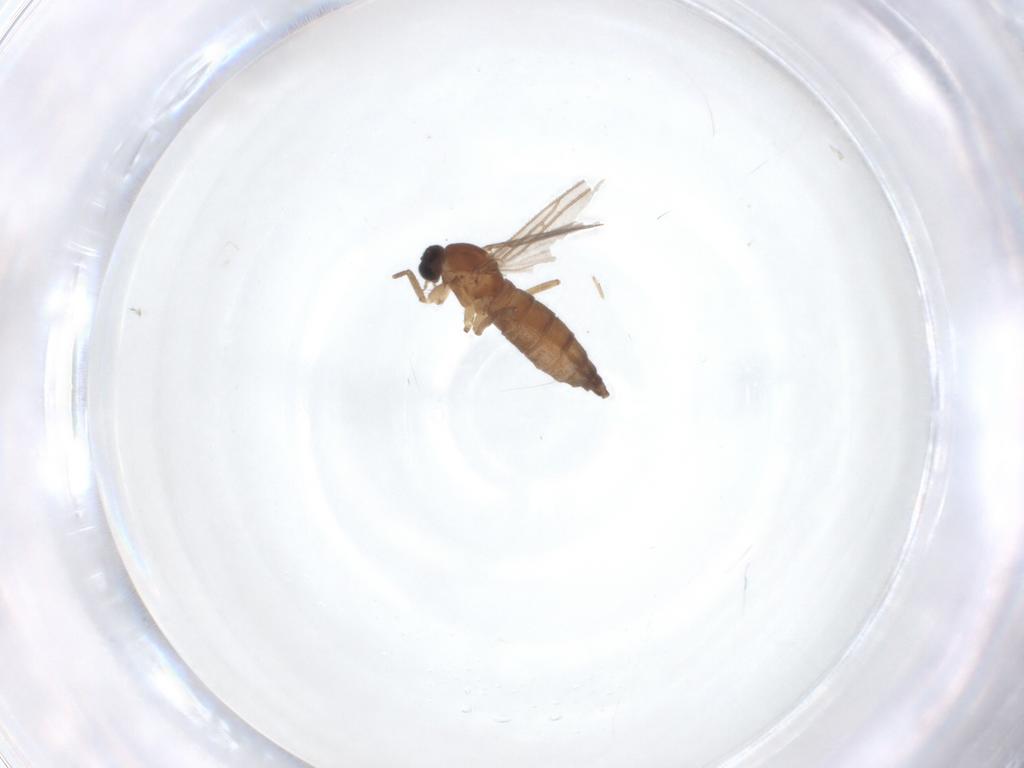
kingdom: Animalia
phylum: Arthropoda
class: Insecta
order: Diptera
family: Sciaridae
